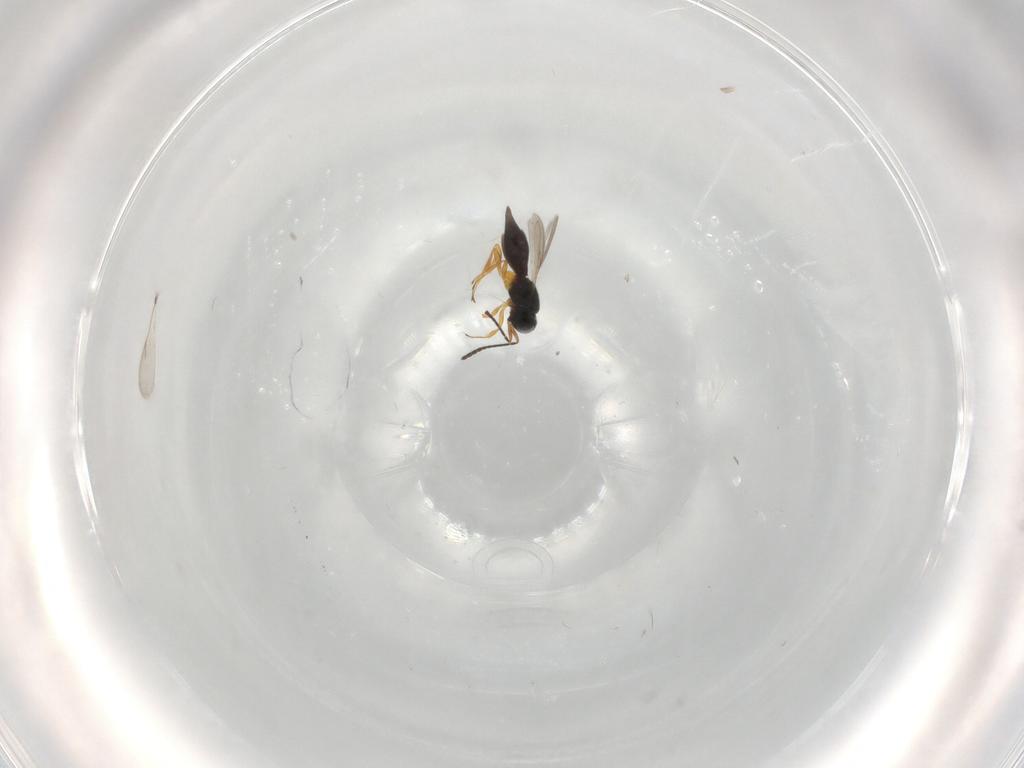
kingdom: Animalia
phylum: Arthropoda
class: Insecta
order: Hymenoptera
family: Scelionidae
